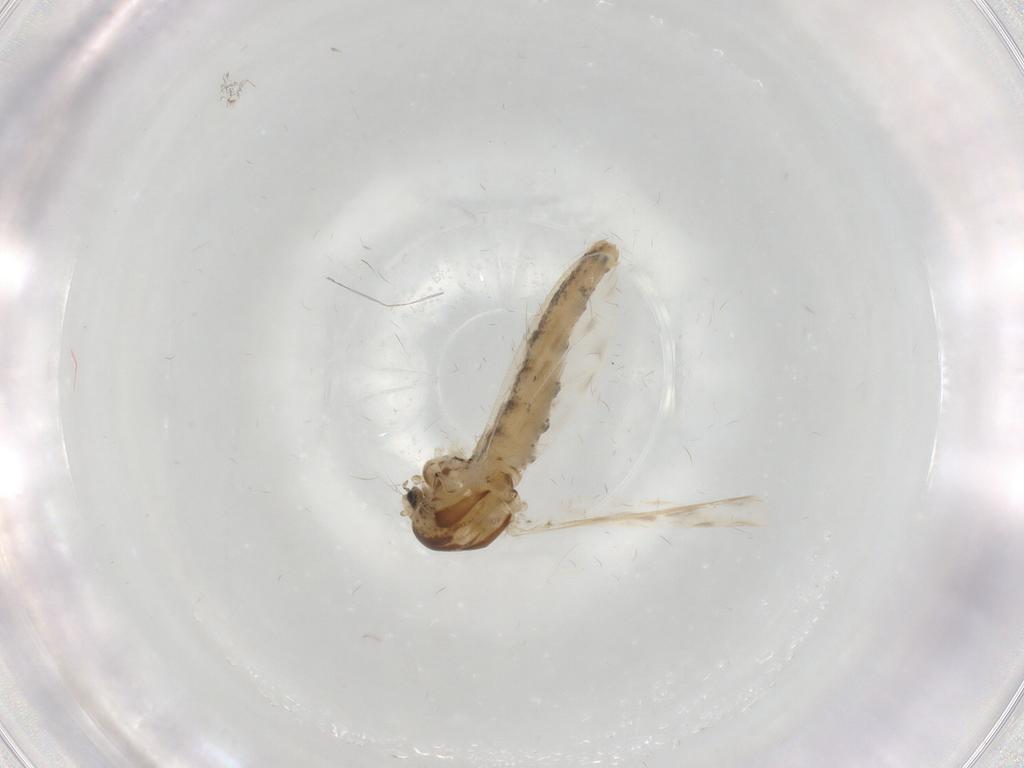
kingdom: Animalia
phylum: Arthropoda
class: Insecta
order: Diptera
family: Chaoboridae
